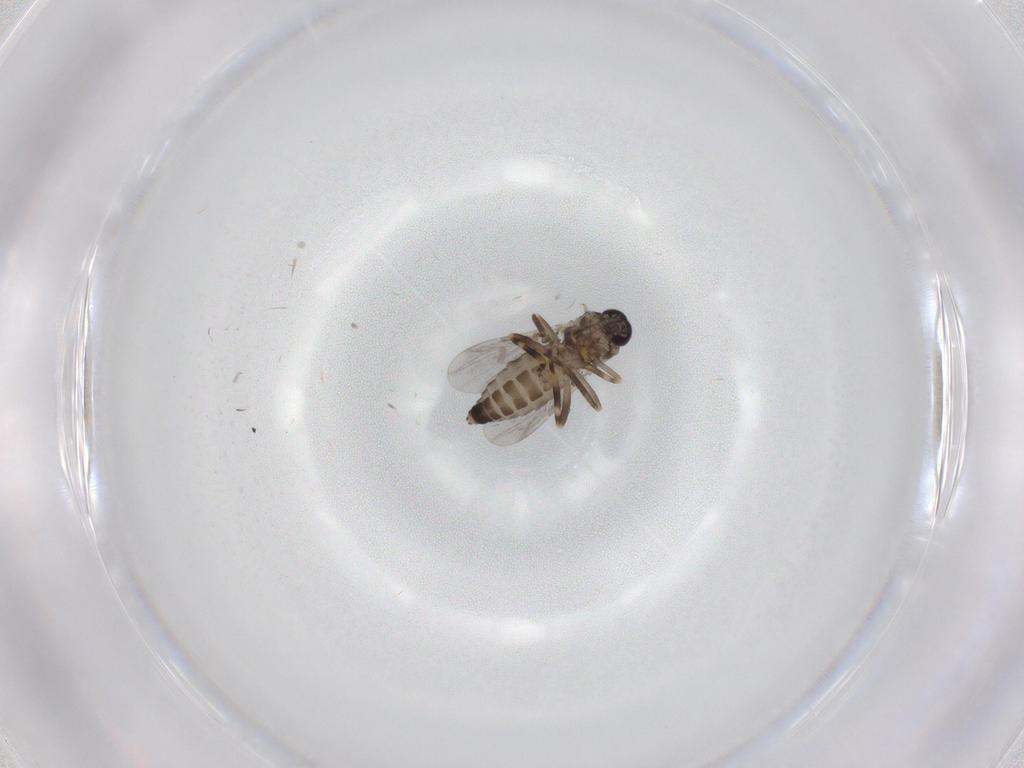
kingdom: Animalia
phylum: Arthropoda
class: Insecta
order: Diptera
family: Ceratopogonidae
